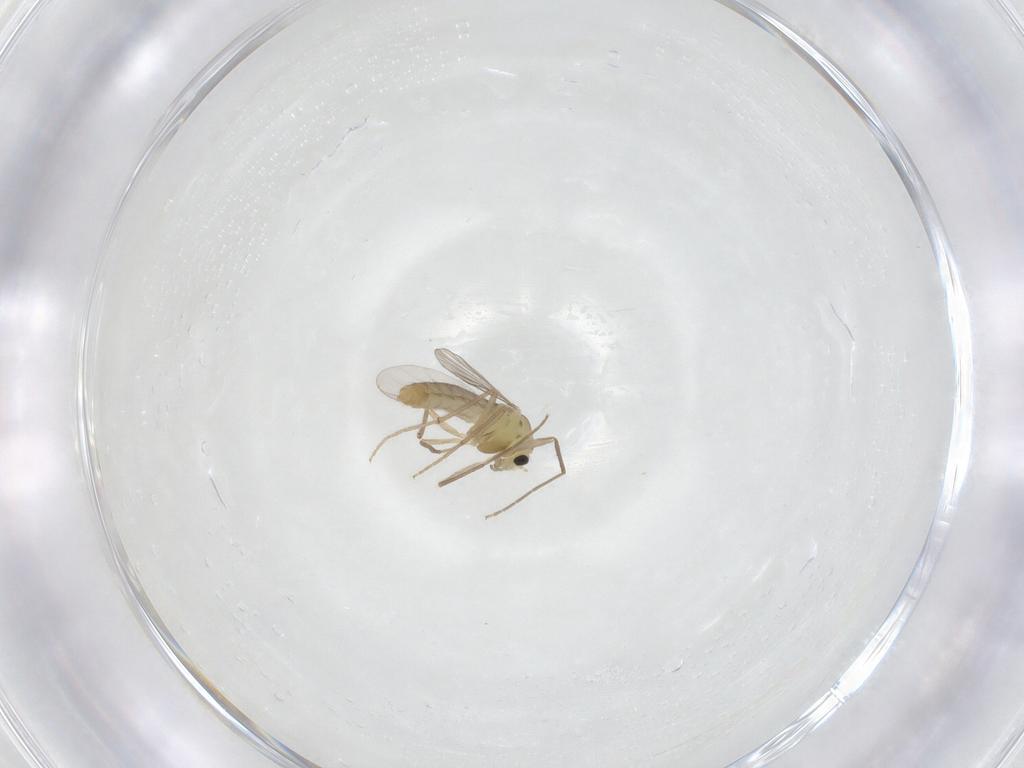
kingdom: Animalia
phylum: Arthropoda
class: Insecta
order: Diptera
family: Chironomidae
